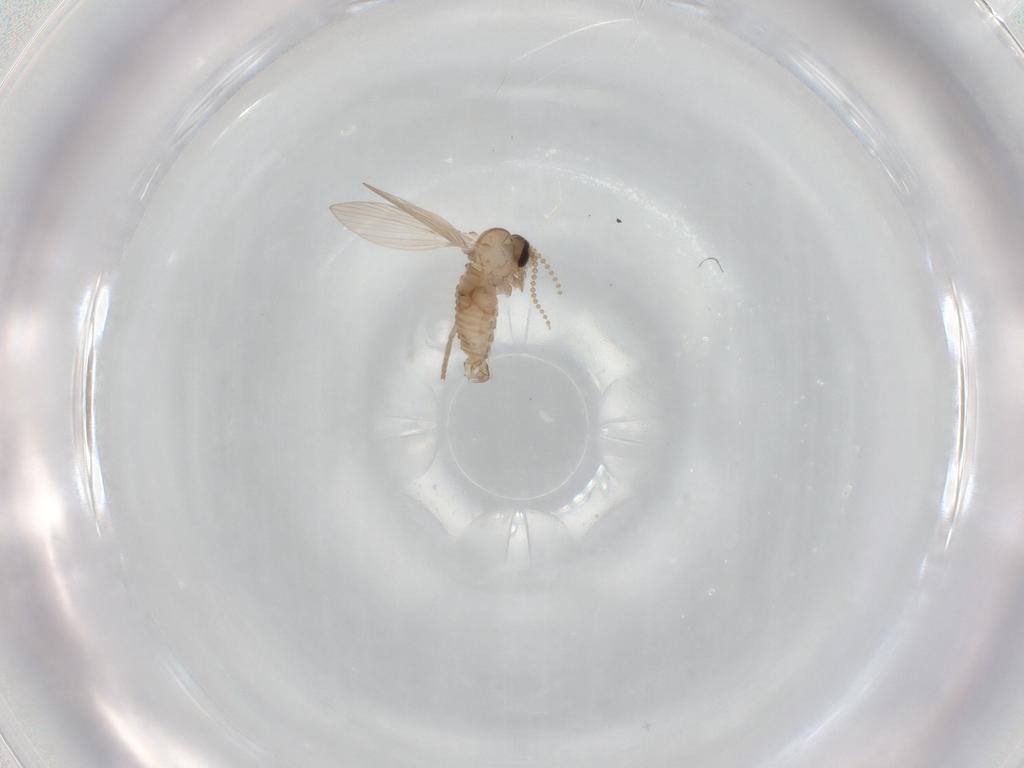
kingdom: Animalia
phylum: Arthropoda
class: Insecta
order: Diptera
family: Psychodidae
